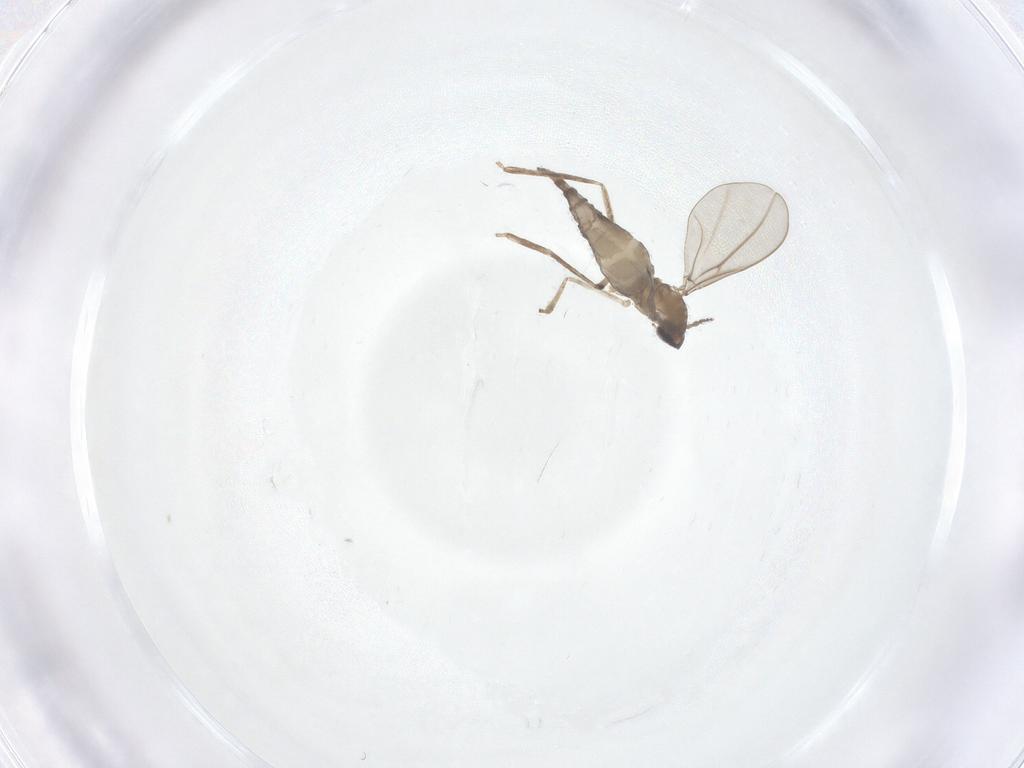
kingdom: Animalia
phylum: Arthropoda
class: Insecta
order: Diptera
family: Cecidomyiidae
